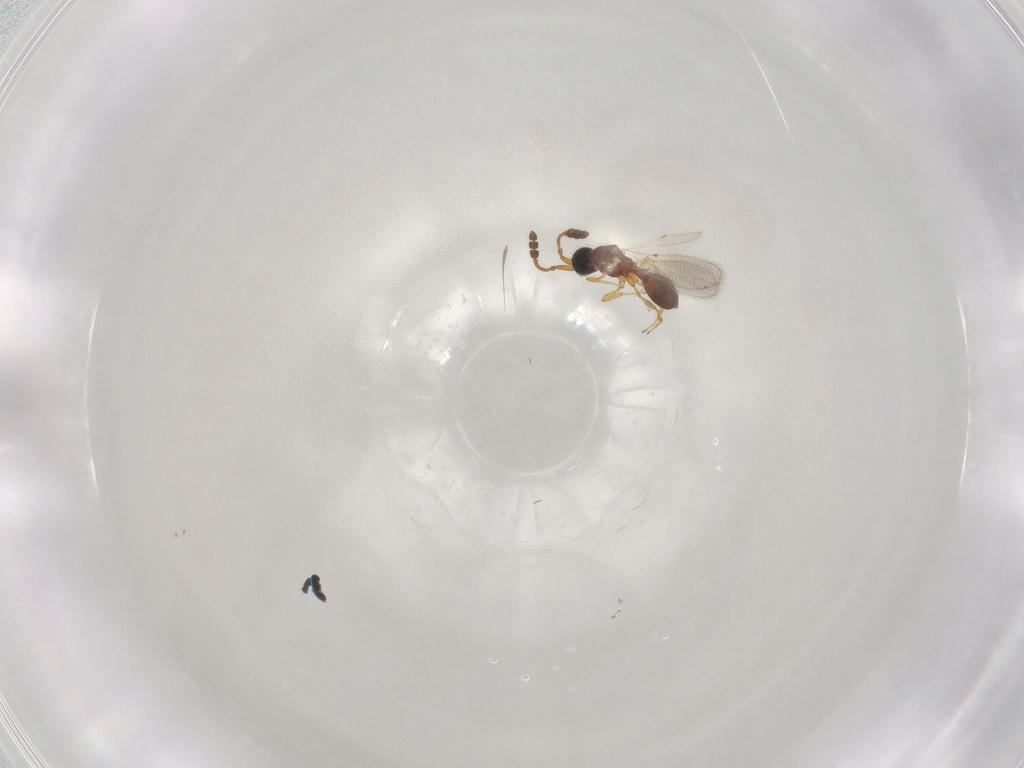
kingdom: Animalia
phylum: Arthropoda
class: Insecta
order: Hymenoptera
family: Diapriidae
